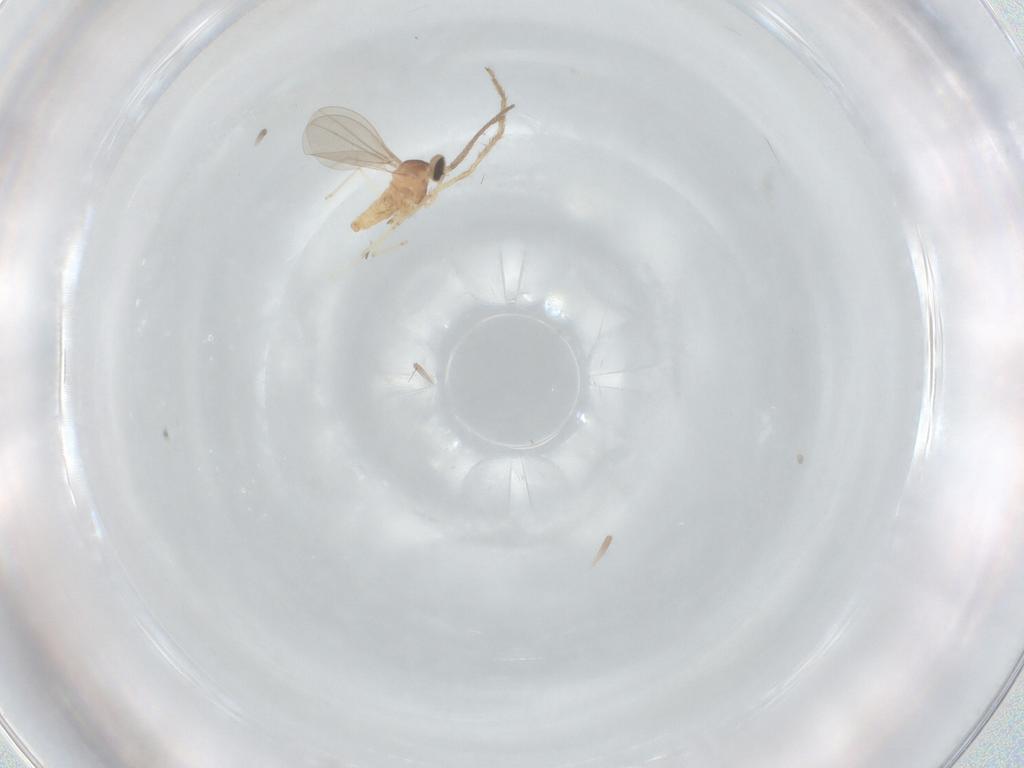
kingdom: Animalia
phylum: Arthropoda
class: Insecta
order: Diptera
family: Cecidomyiidae
